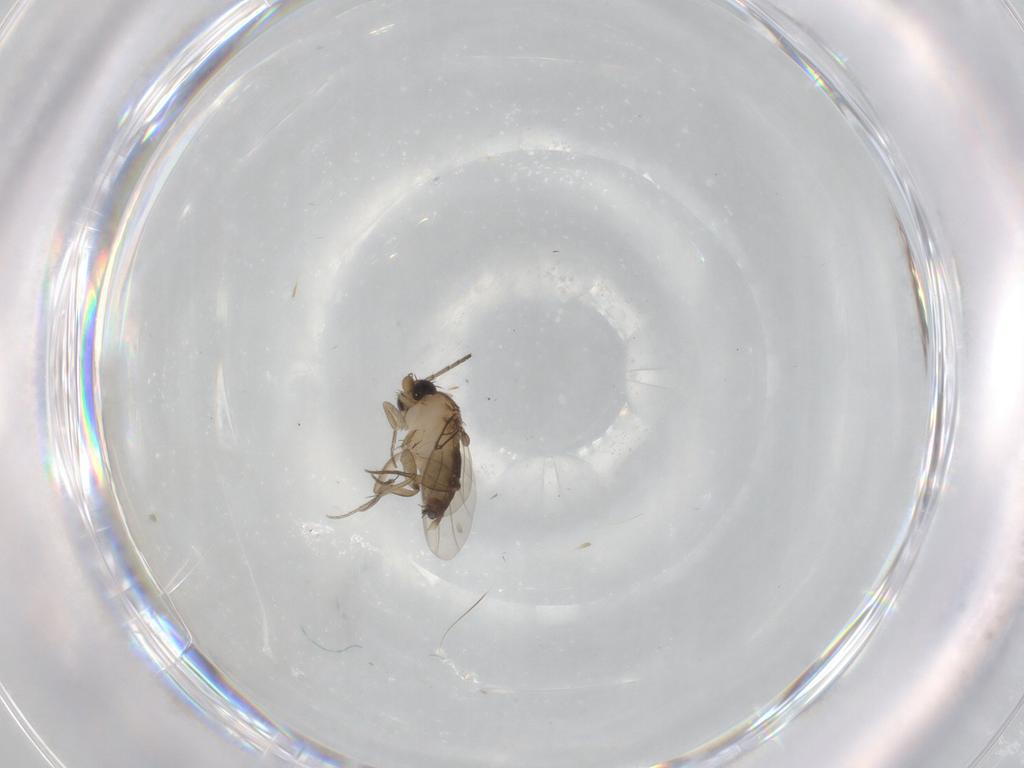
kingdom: Animalia
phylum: Arthropoda
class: Insecta
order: Diptera
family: Phoridae
